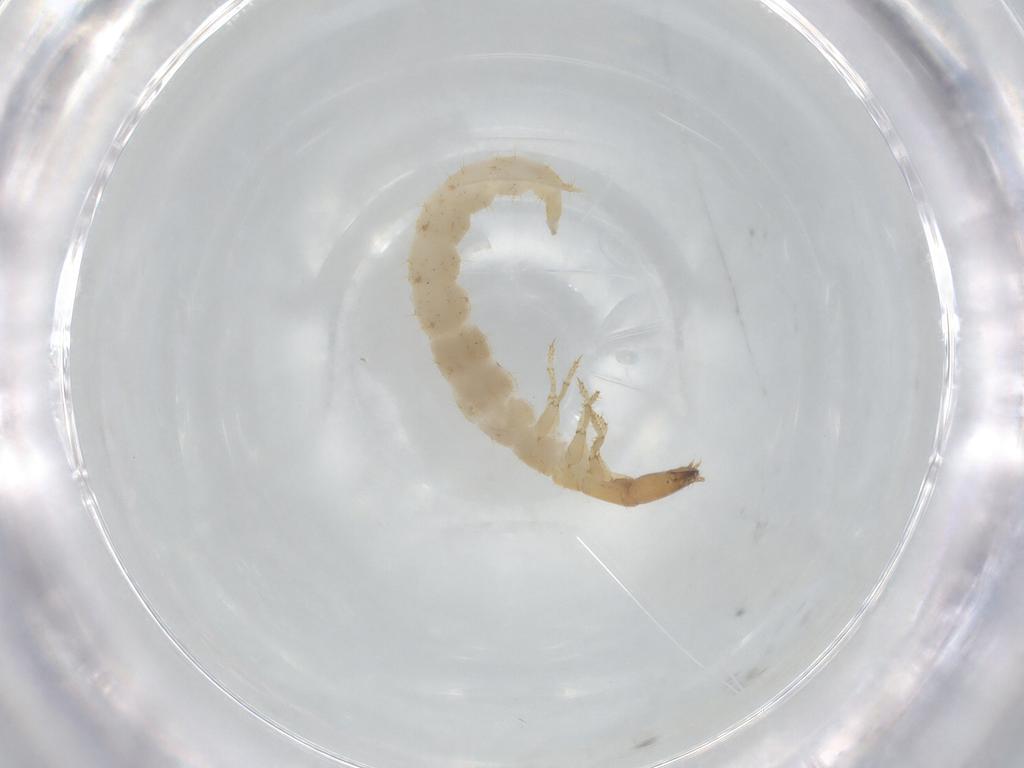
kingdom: Animalia
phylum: Arthropoda
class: Insecta
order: Coleoptera
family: Staphylinidae
